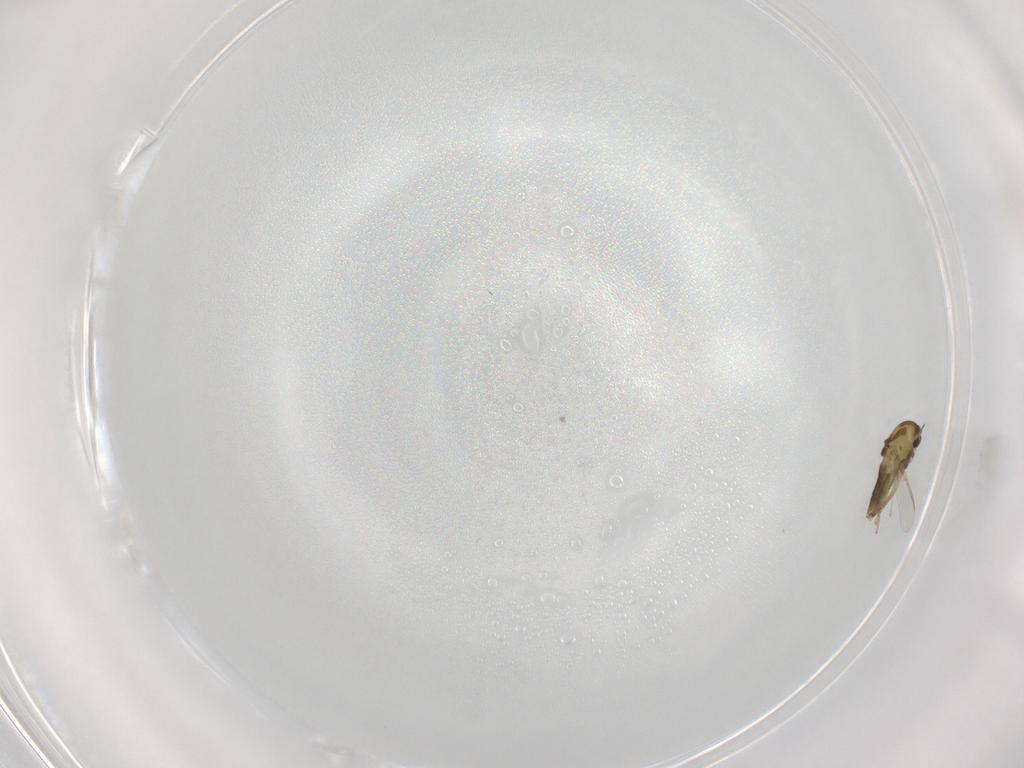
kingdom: Animalia
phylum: Arthropoda
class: Insecta
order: Diptera
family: Chironomidae
